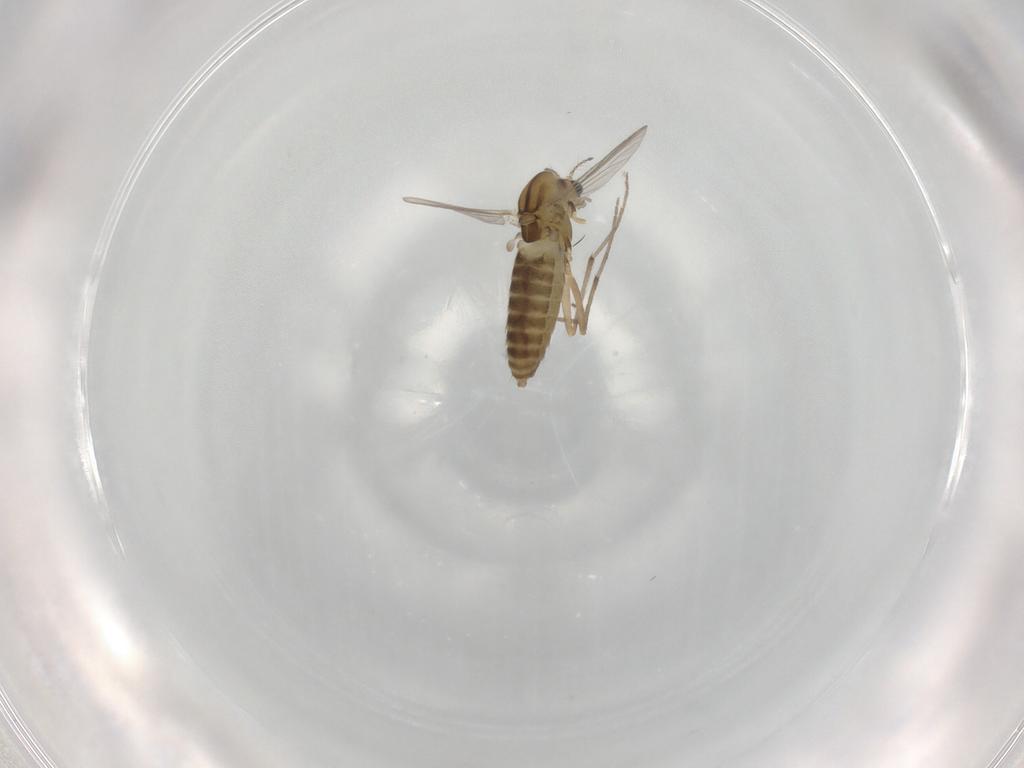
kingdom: Animalia
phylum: Arthropoda
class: Insecta
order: Diptera
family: Chironomidae
